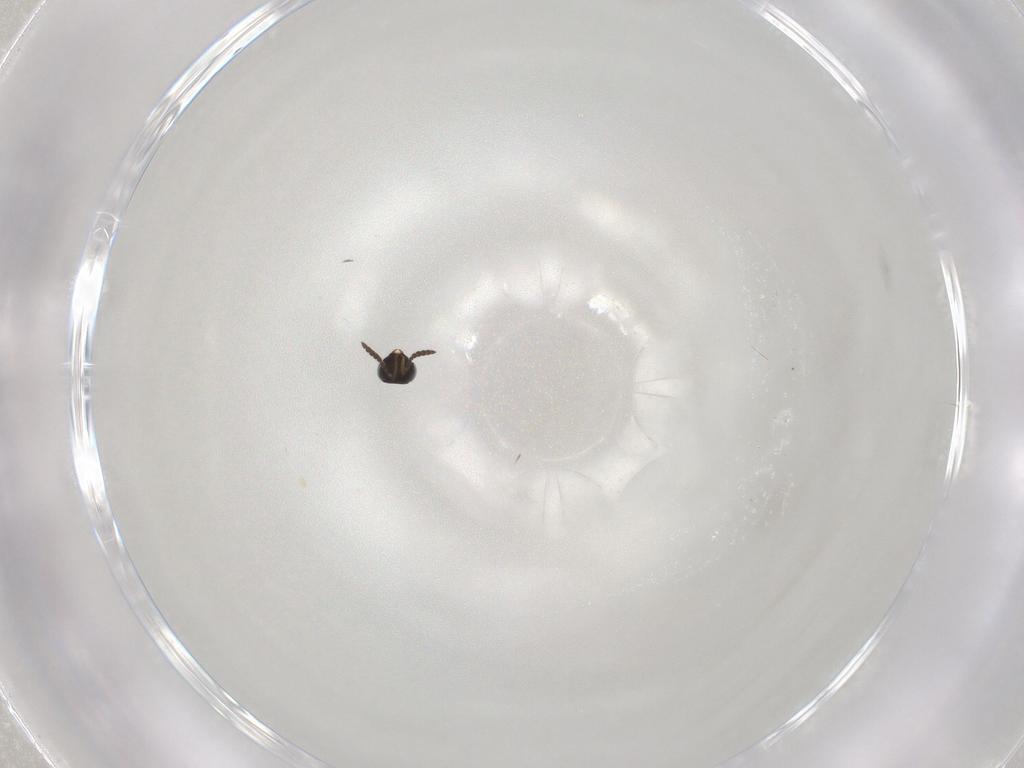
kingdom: Animalia
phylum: Arthropoda
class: Insecta
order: Hymenoptera
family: Scelionidae
